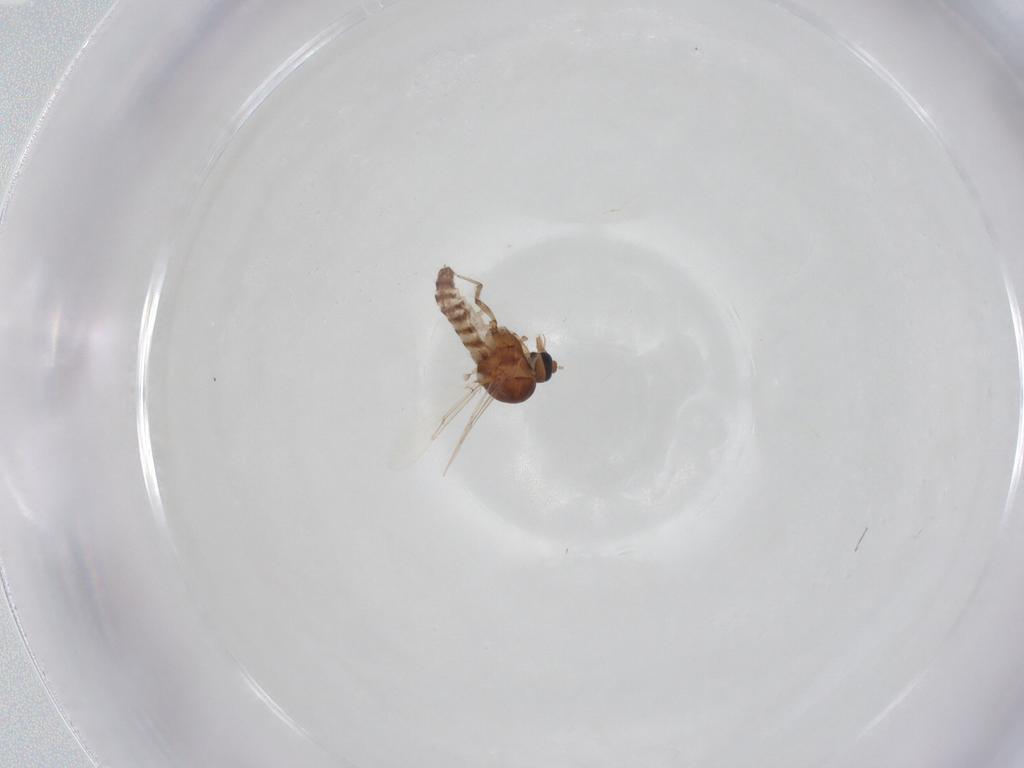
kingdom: Animalia
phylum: Arthropoda
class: Insecta
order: Diptera
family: Ceratopogonidae
